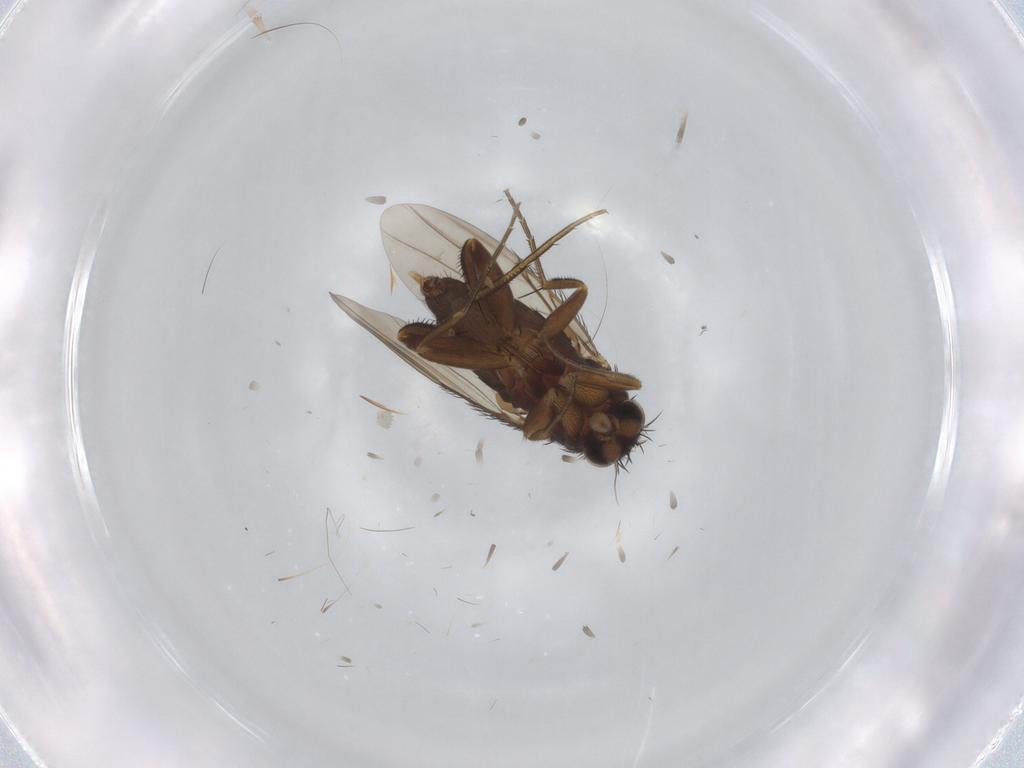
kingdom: Animalia
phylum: Arthropoda
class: Insecta
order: Diptera
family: Phoridae
